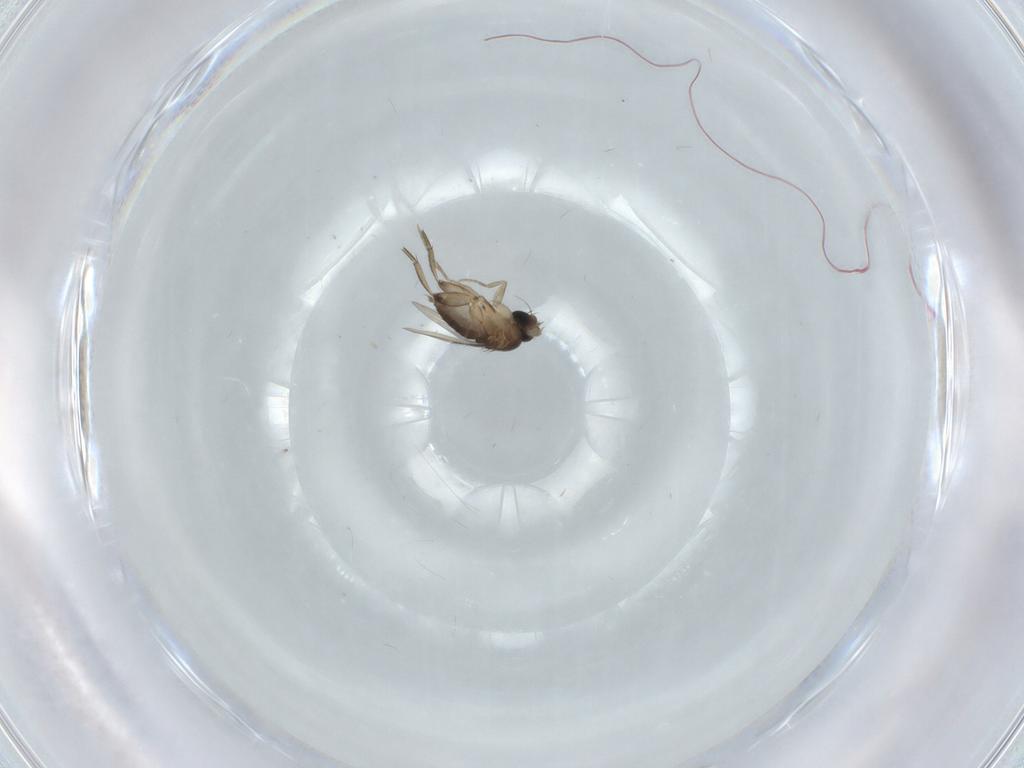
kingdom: Animalia
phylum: Arthropoda
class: Insecta
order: Diptera
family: Phoridae
